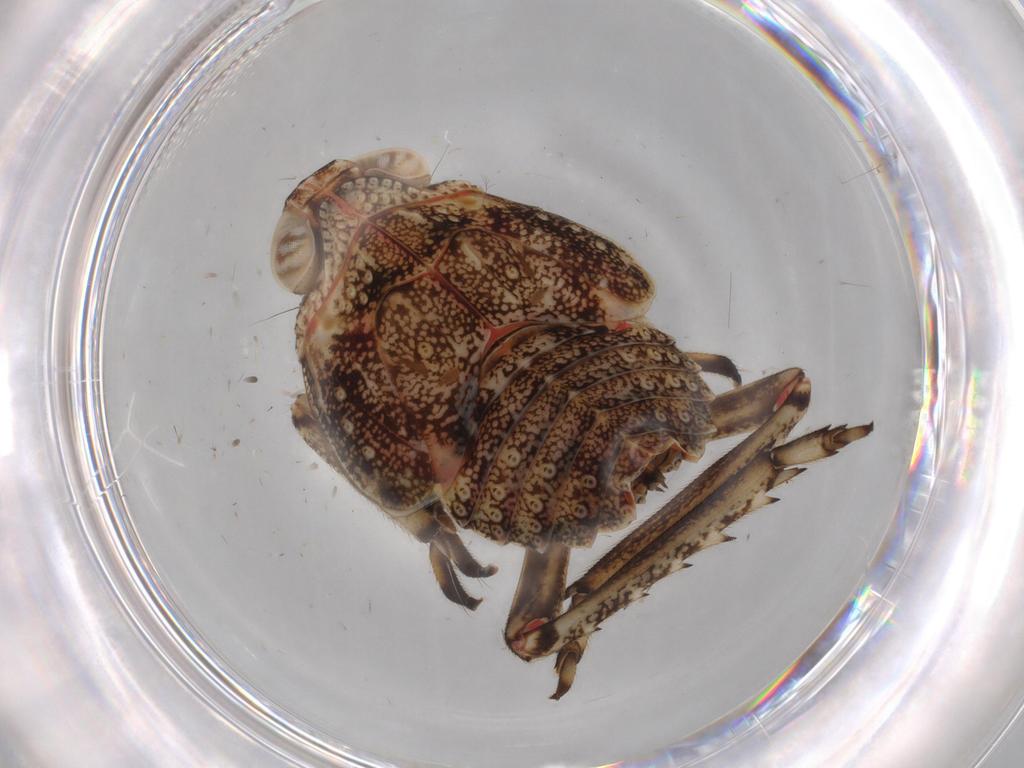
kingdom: Animalia
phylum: Arthropoda
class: Insecta
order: Hemiptera
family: Issidae
